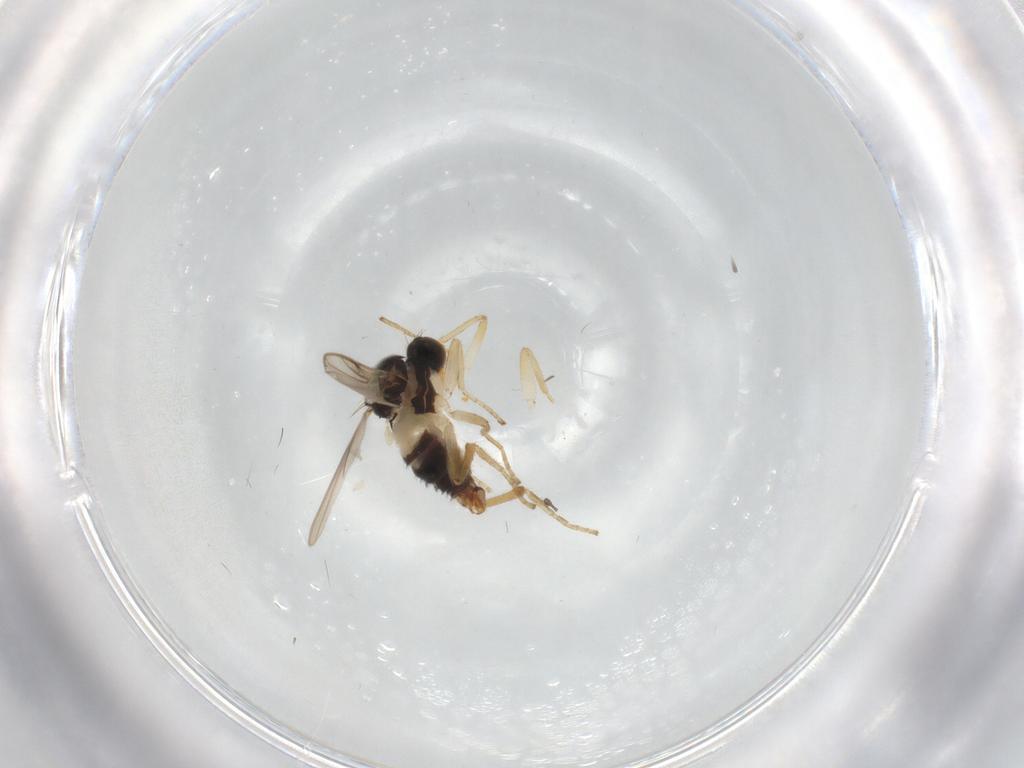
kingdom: Animalia
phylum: Arthropoda
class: Insecta
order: Diptera
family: Hybotidae
